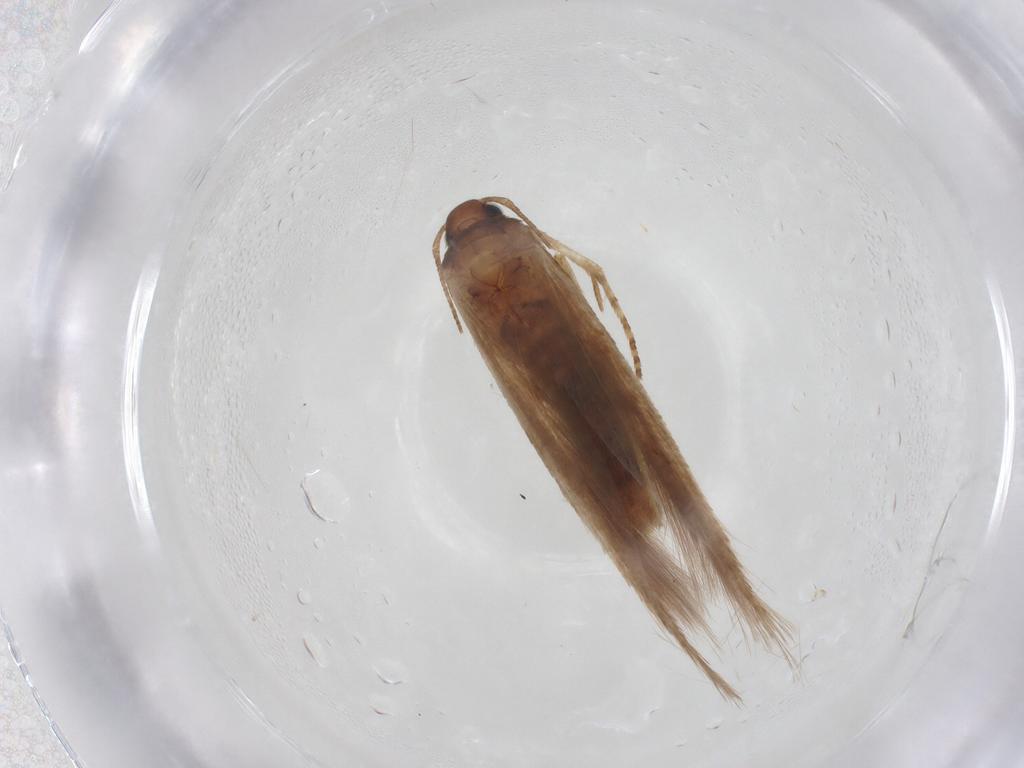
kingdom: Animalia
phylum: Arthropoda
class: Insecta
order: Lepidoptera
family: Gelechiidae
